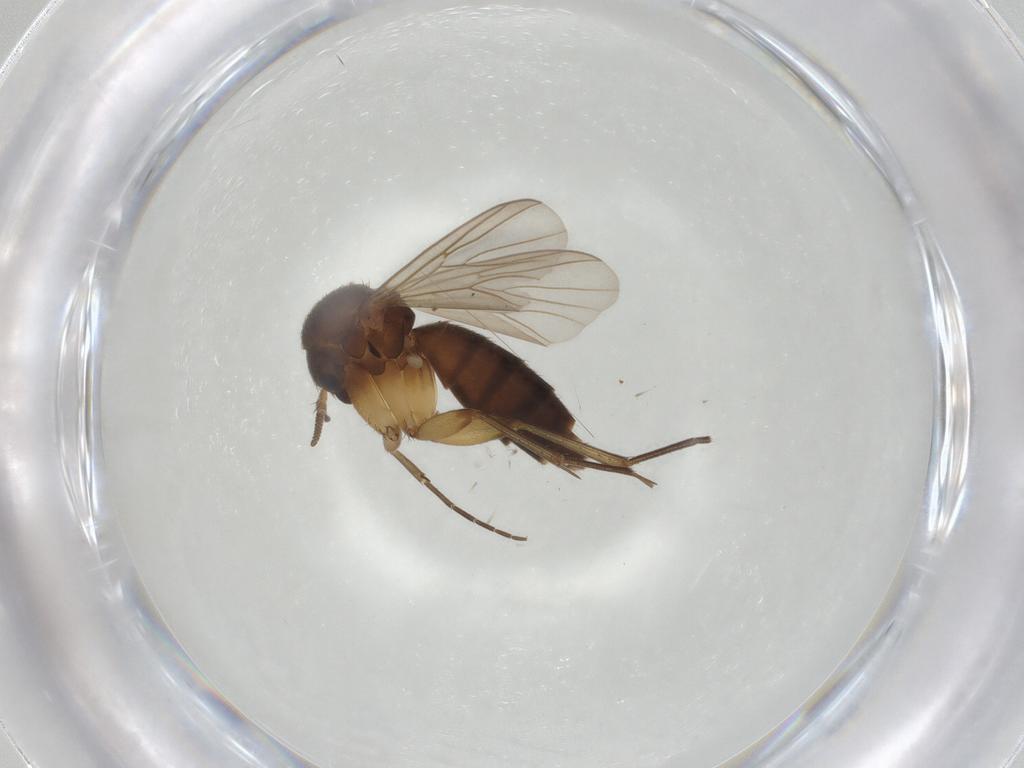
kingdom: Animalia
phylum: Arthropoda
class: Insecta
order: Diptera
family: Mycetophilidae
